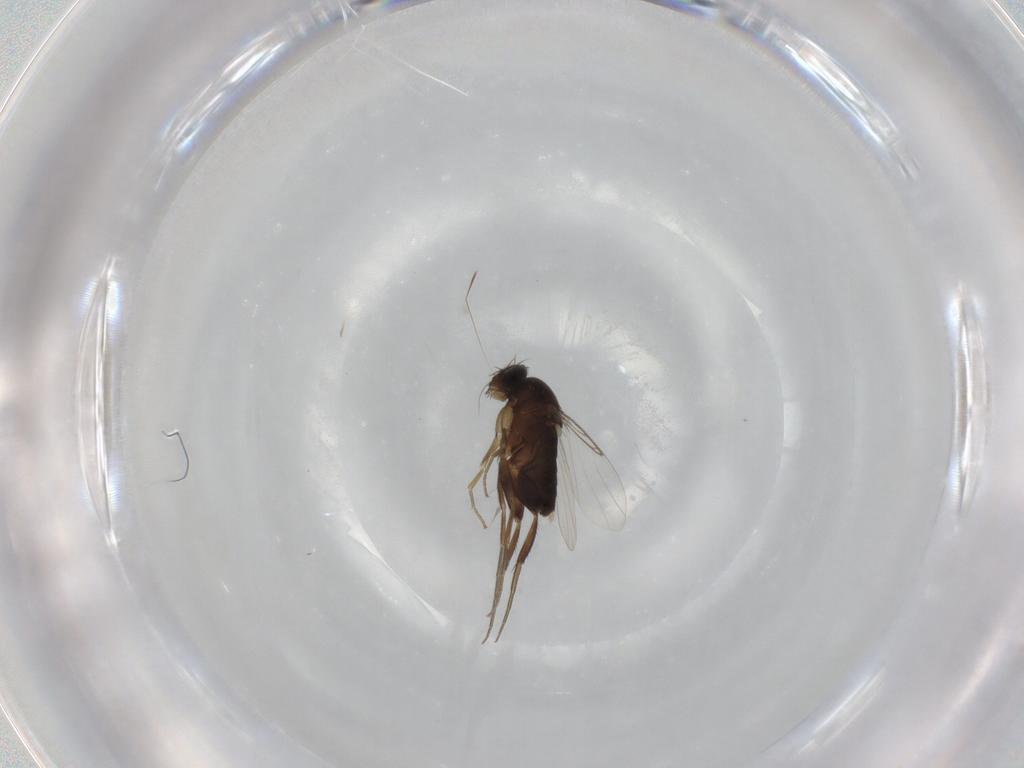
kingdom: Animalia
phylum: Arthropoda
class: Insecta
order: Diptera
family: Phoridae
